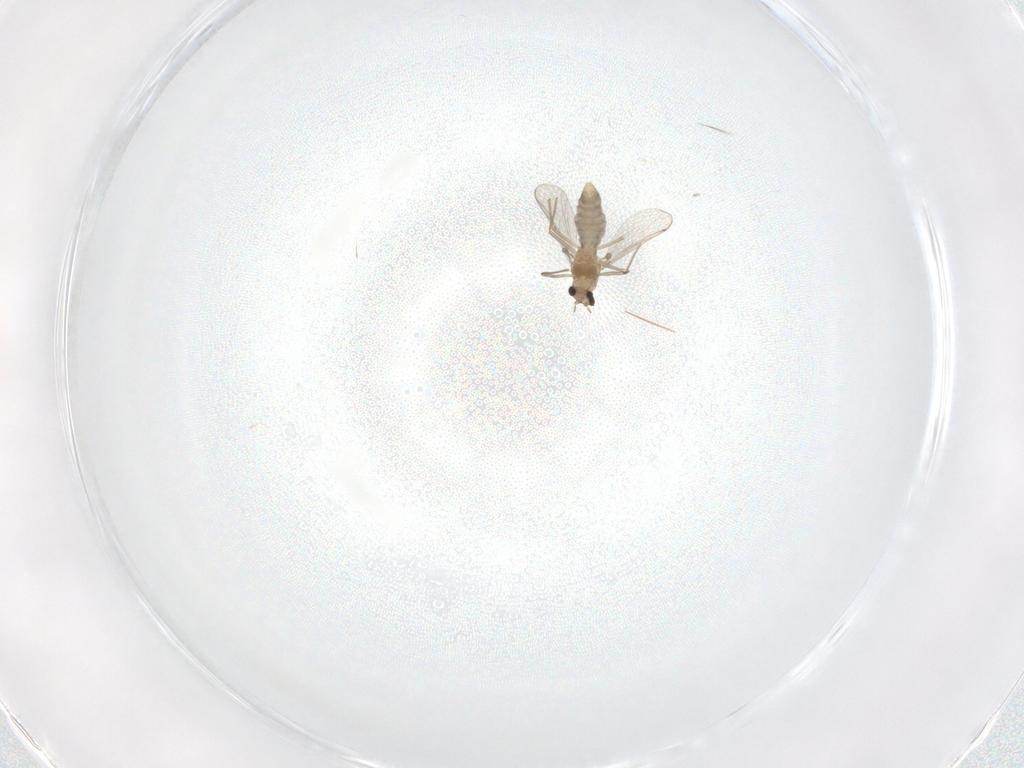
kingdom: Animalia
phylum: Arthropoda
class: Insecta
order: Diptera
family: Chironomidae
